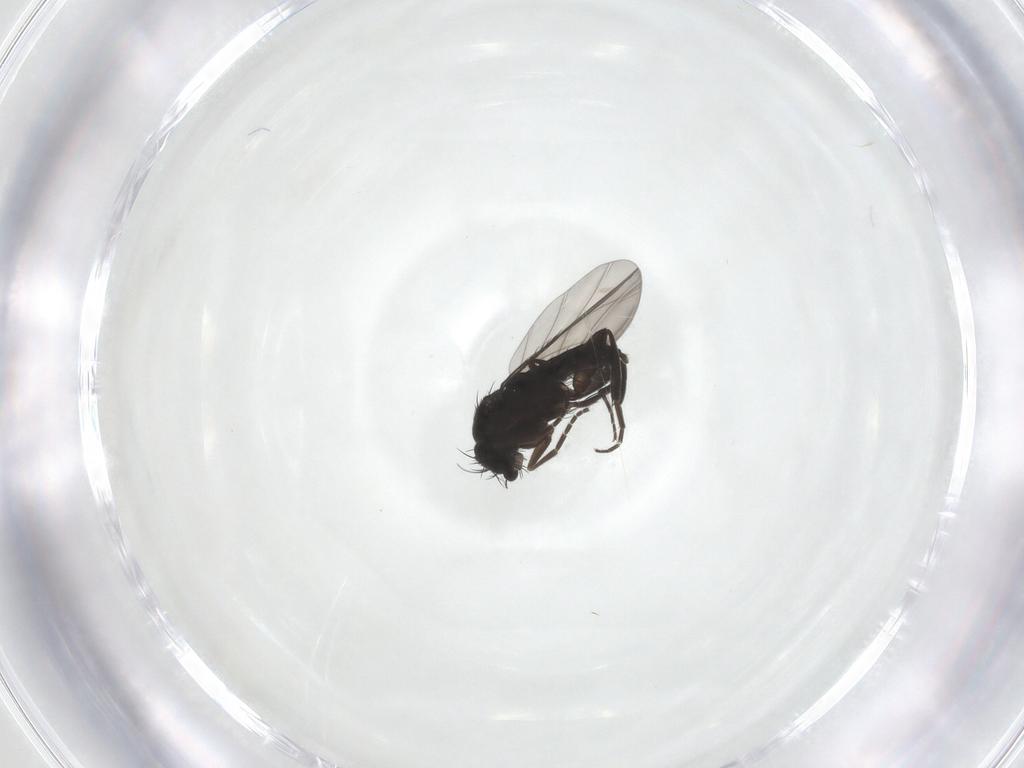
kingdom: Animalia
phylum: Arthropoda
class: Insecta
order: Diptera
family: Phoridae
